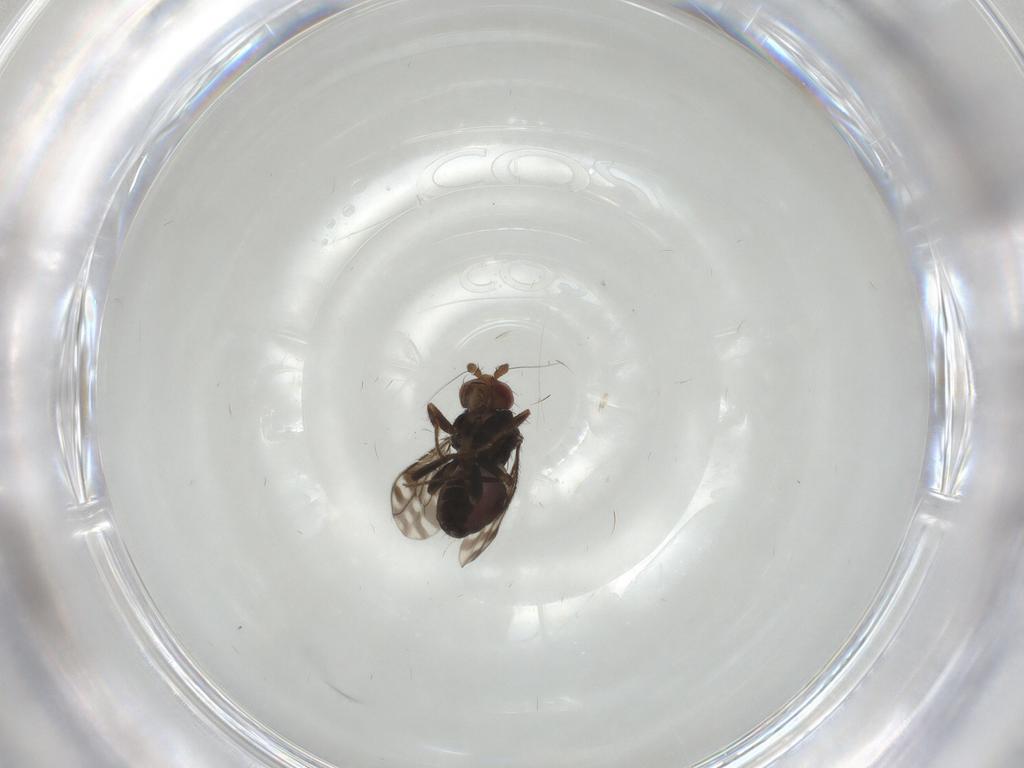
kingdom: Animalia
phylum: Arthropoda
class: Insecta
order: Diptera
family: Sphaeroceridae
